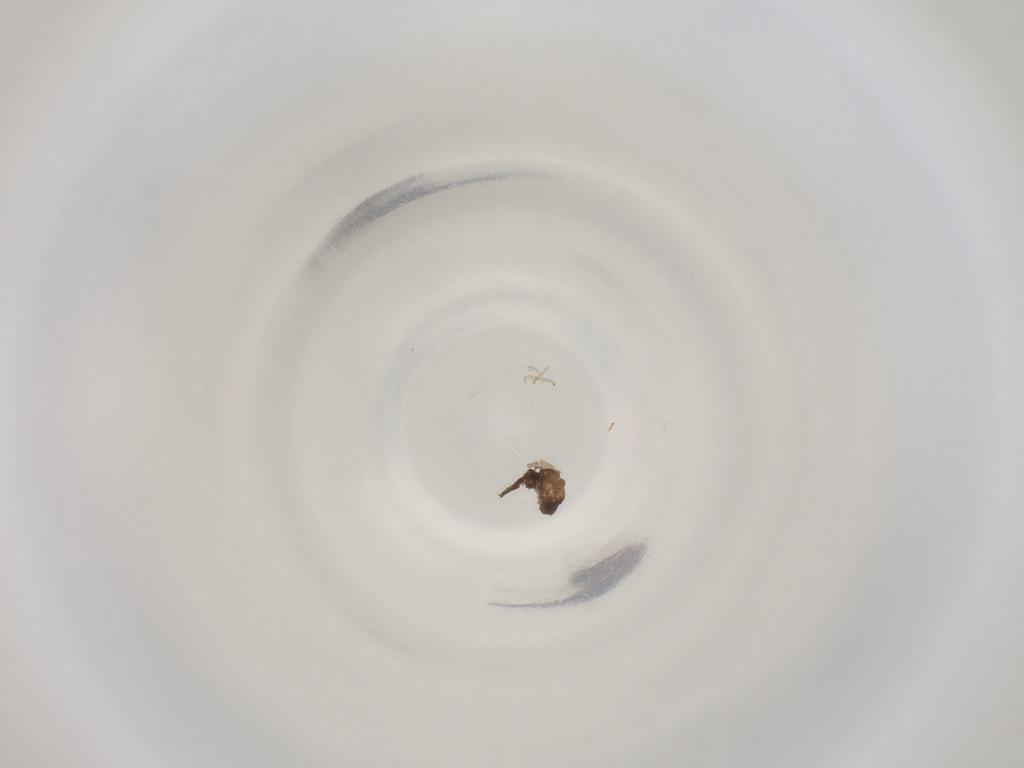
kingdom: Animalia
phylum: Arthropoda
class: Insecta
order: Diptera
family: Cecidomyiidae
